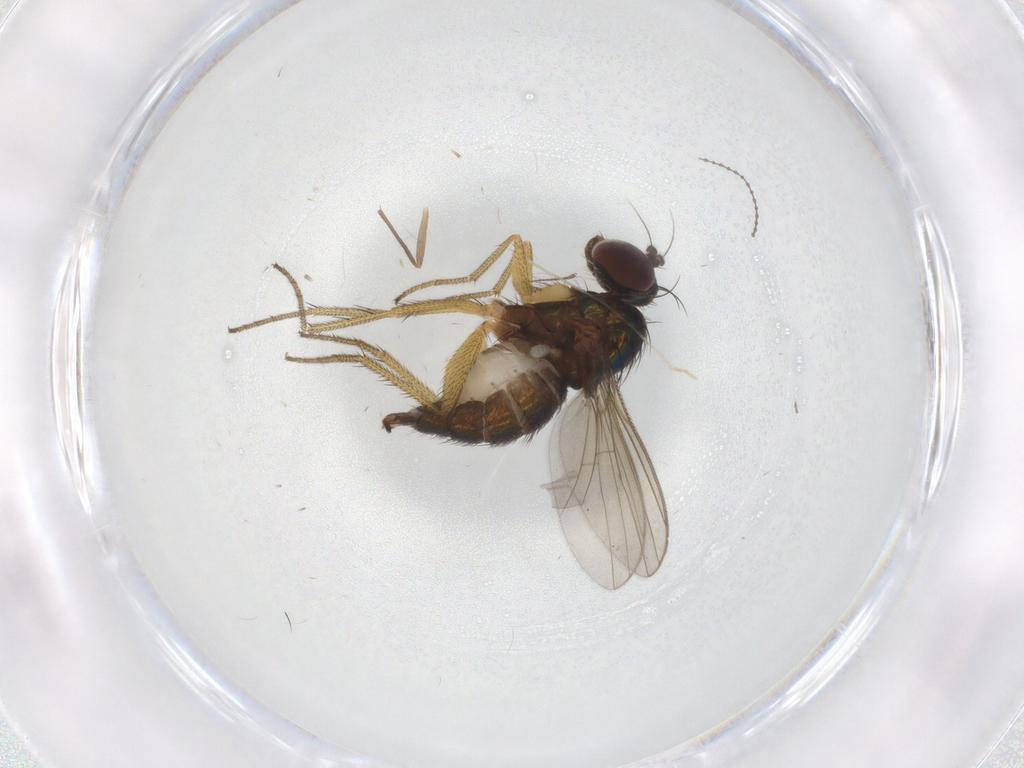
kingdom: Animalia
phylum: Arthropoda
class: Insecta
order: Diptera
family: Cecidomyiidae
